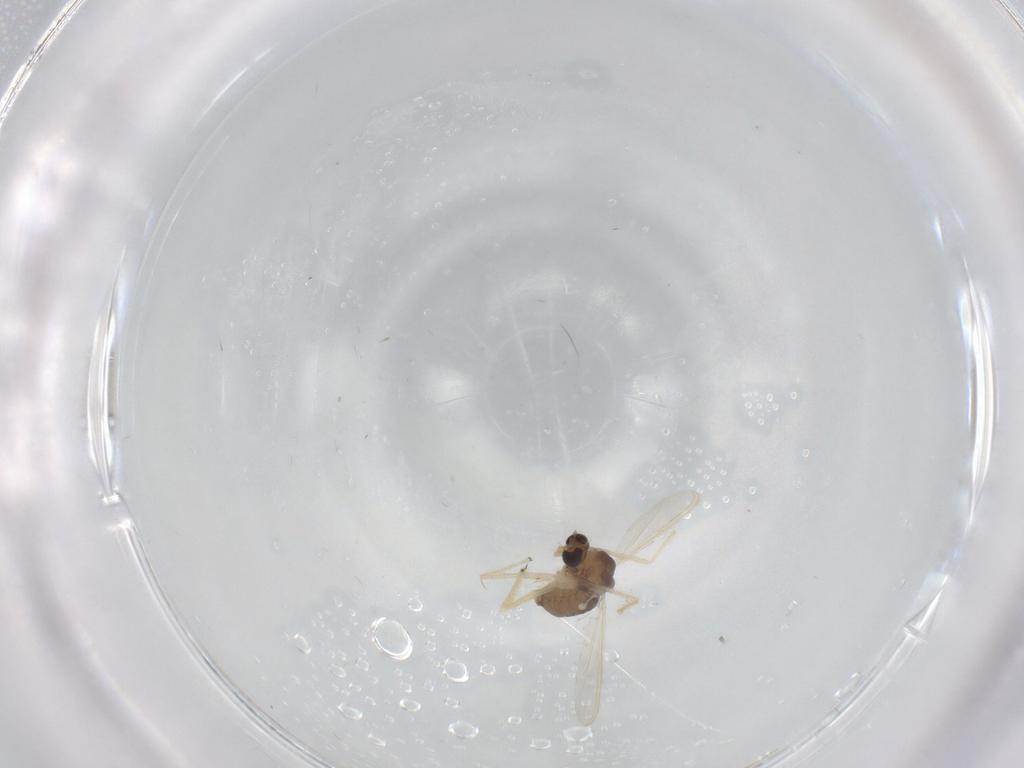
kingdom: Animalia
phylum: Arthropoda
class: Insecta
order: Diptera
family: Chironomidae
